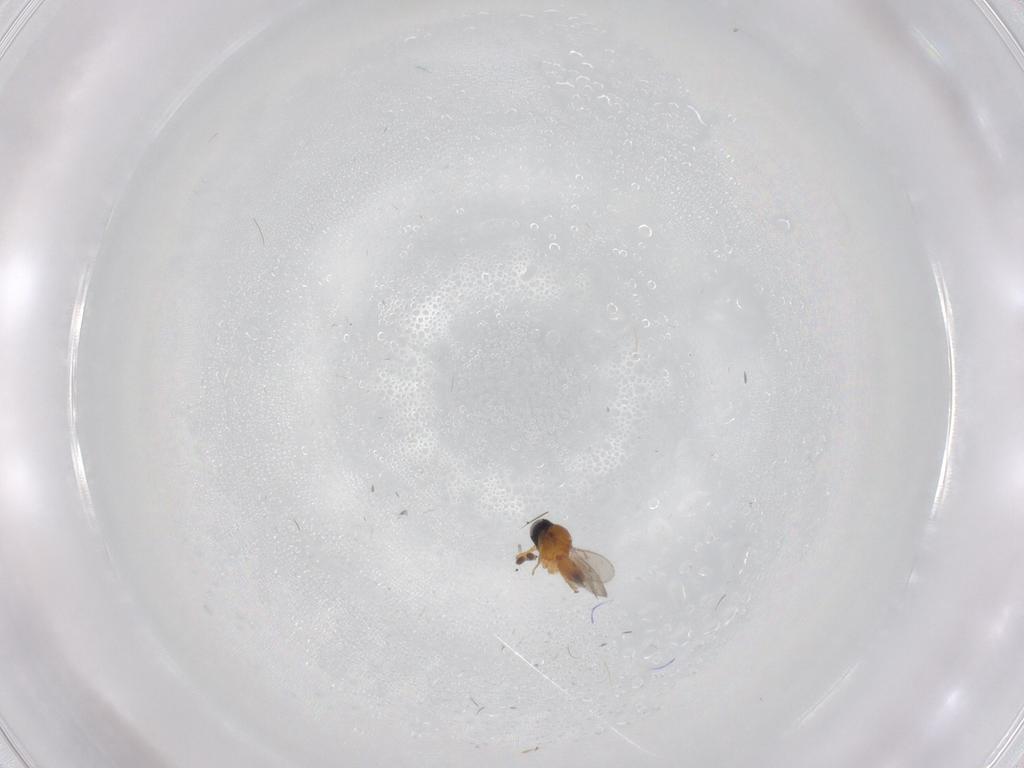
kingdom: Animalia
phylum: Arthropoda
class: Insecta
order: Hymenoptera
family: Scelionidae
